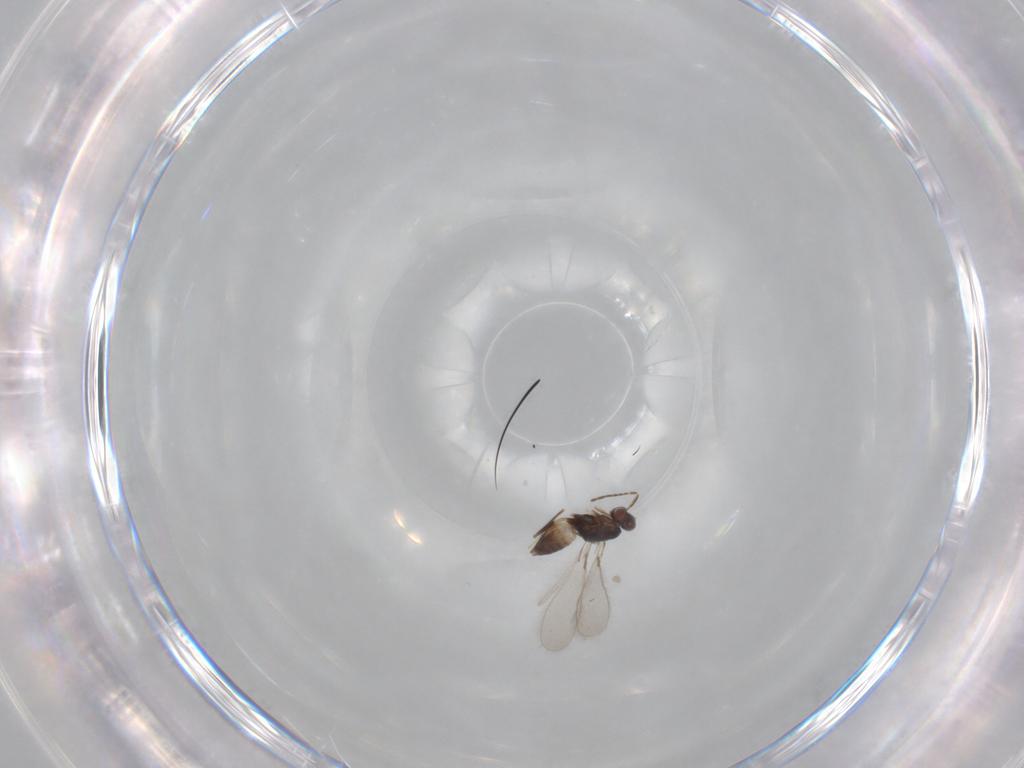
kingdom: Animalia
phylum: Arthropoda
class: Insecta
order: Hymenoptera
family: Mymaridae
